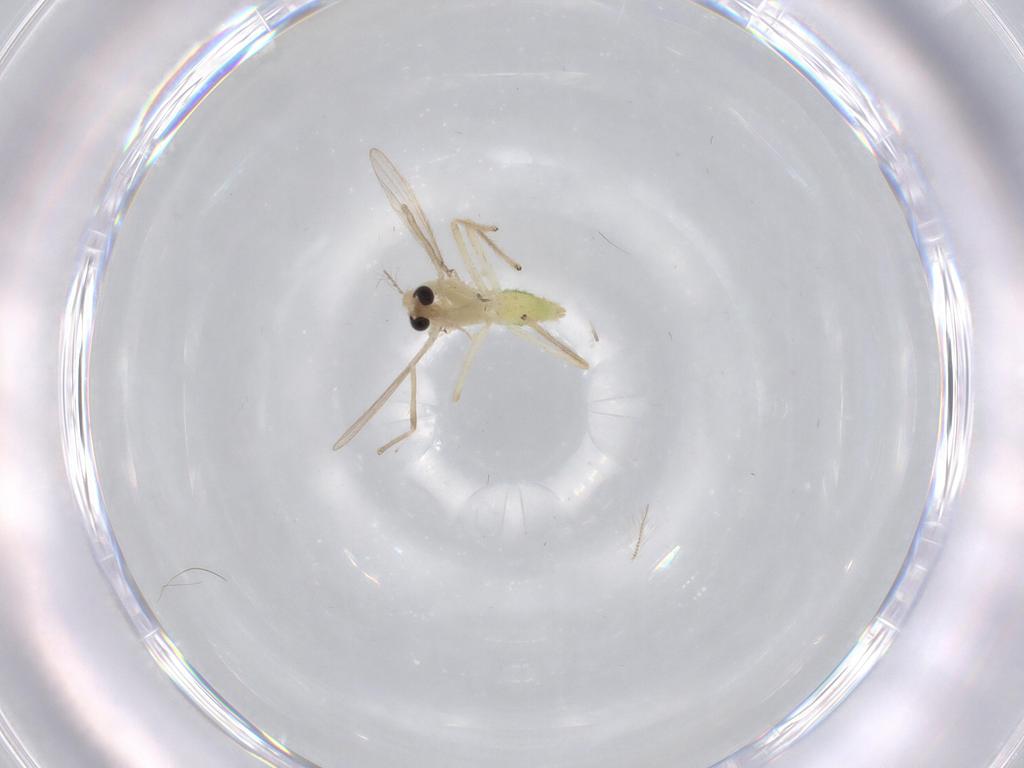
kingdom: Animalia
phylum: Arthropoda
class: Insecta
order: Diptera
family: Chironomidae
